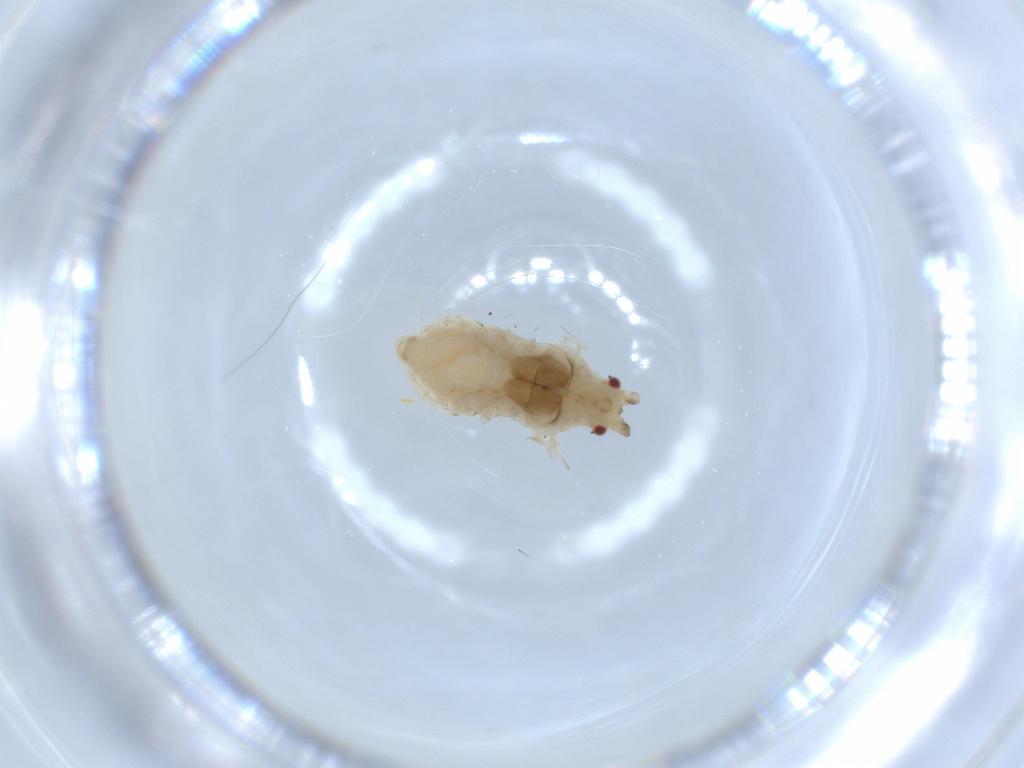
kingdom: Animalia
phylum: Arthropoda
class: Insecta
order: Hemiptera
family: Aphididae
